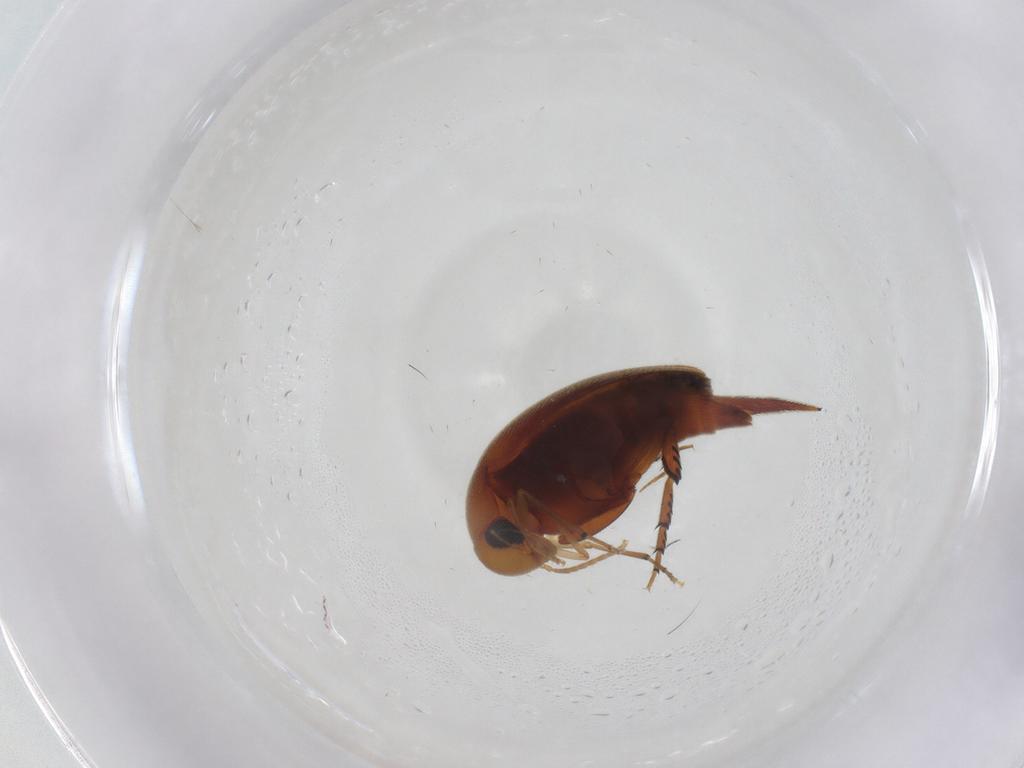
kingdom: Animalia
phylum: Arthropoda
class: Insecta
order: Coleoptera
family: Mordellidae
